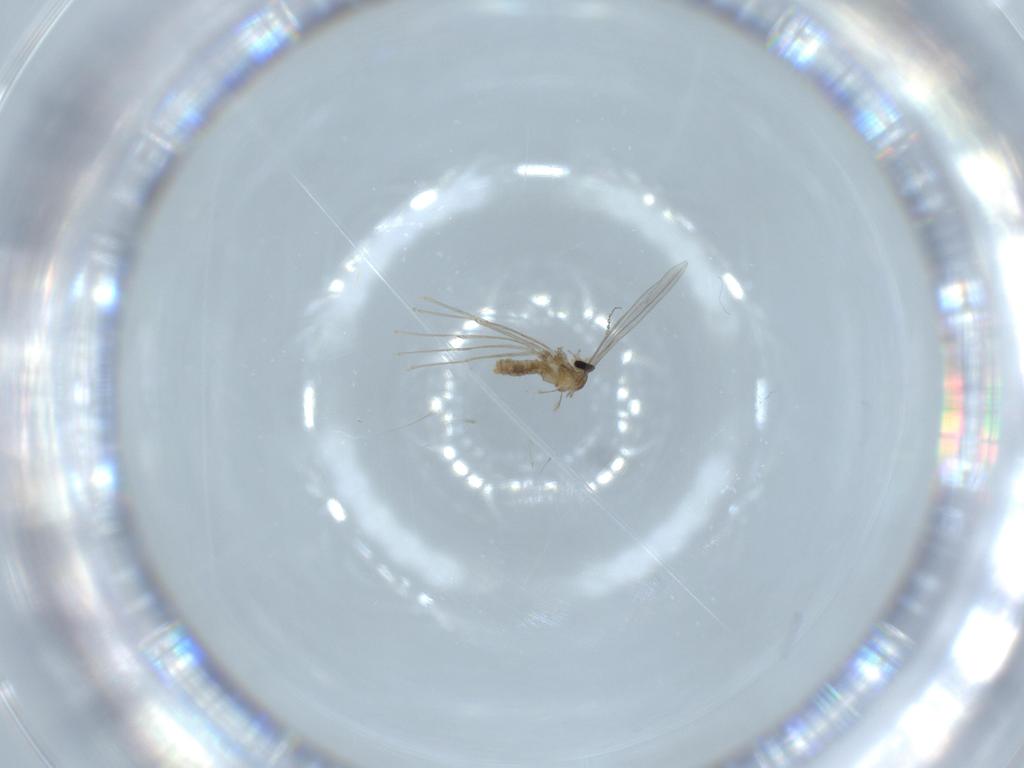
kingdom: Animalia
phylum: Arthropoda
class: Insecta
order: Diptera
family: Cecidomyiidae
